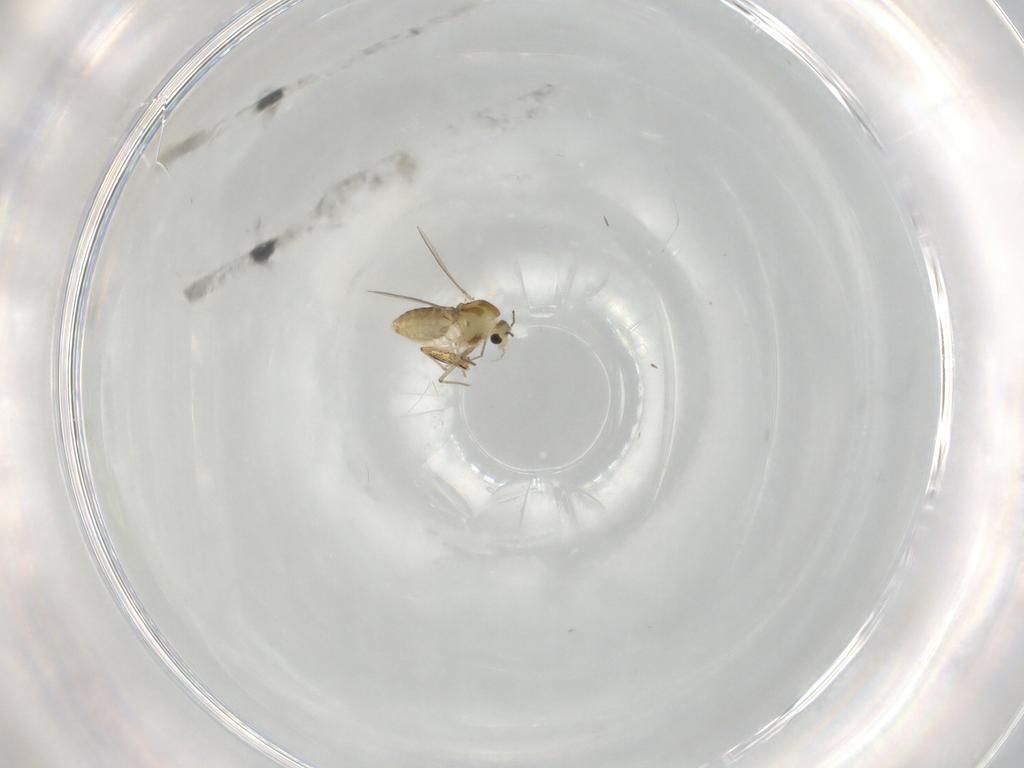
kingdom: Animalia
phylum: Arthropoda
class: Insecta
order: Diptera
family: Chironomidae
